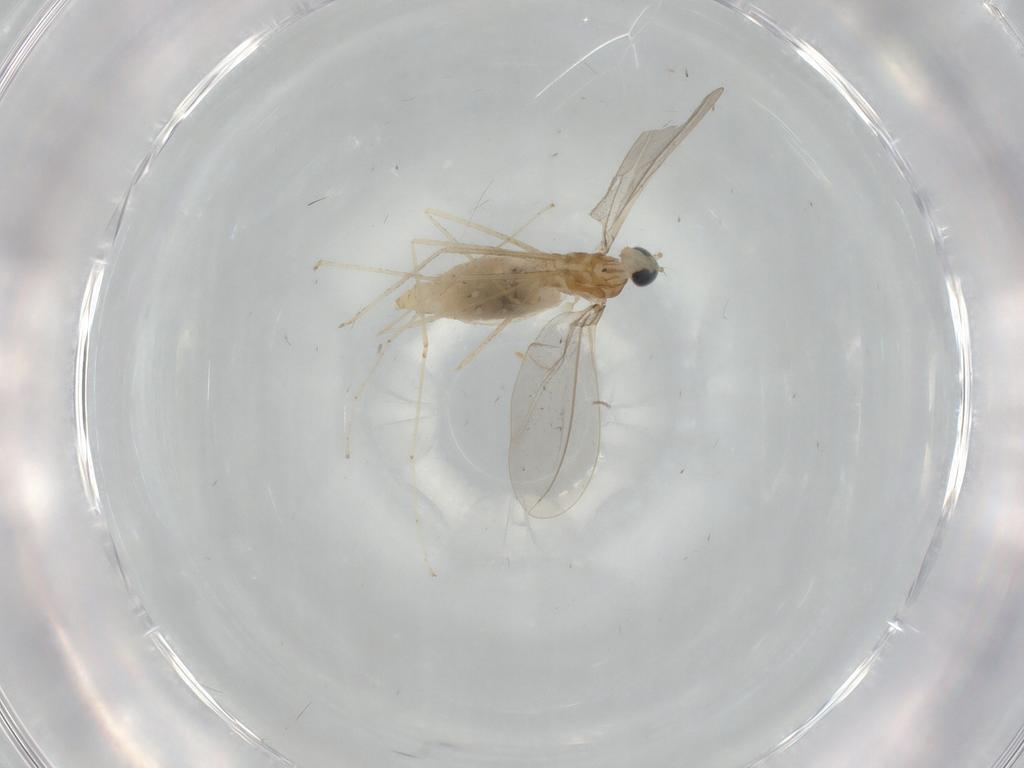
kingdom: Animalia
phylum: Arthropoda
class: Insecta
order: Diptera
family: Cecidomyiidae
